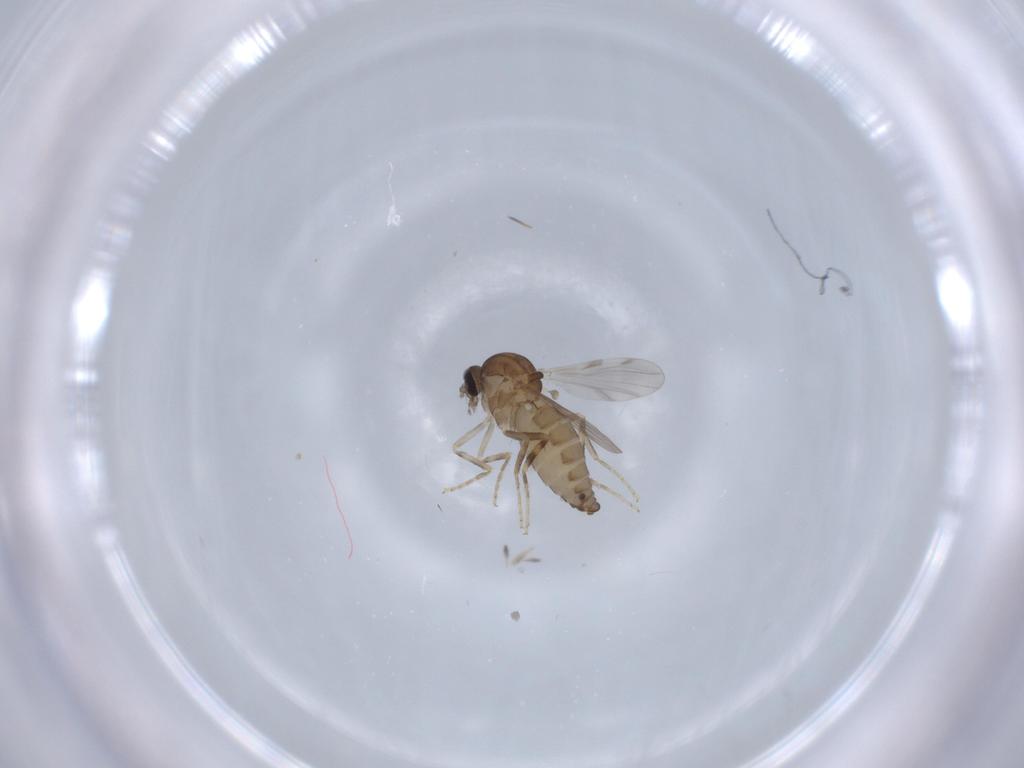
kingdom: Animalia
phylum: Arthropoda
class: Insecta
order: Diptera
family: Ceratopogonidae
